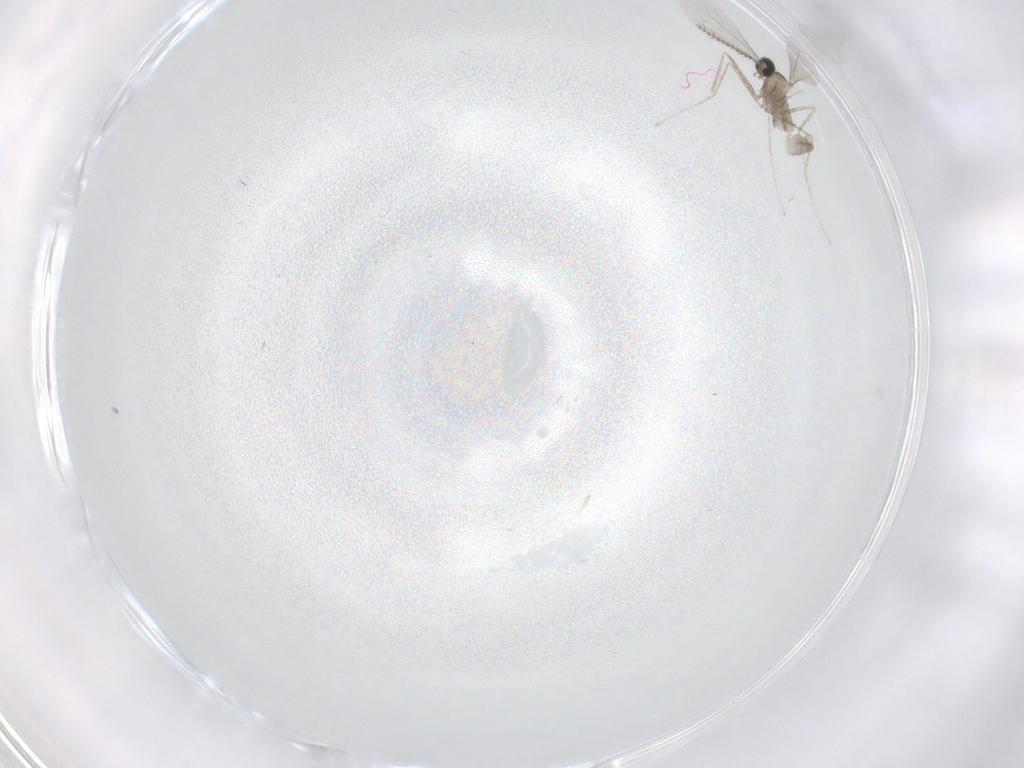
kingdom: Animalia
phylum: Arthropoda
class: Insecta
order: Diptera
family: Cecidomyiidae
